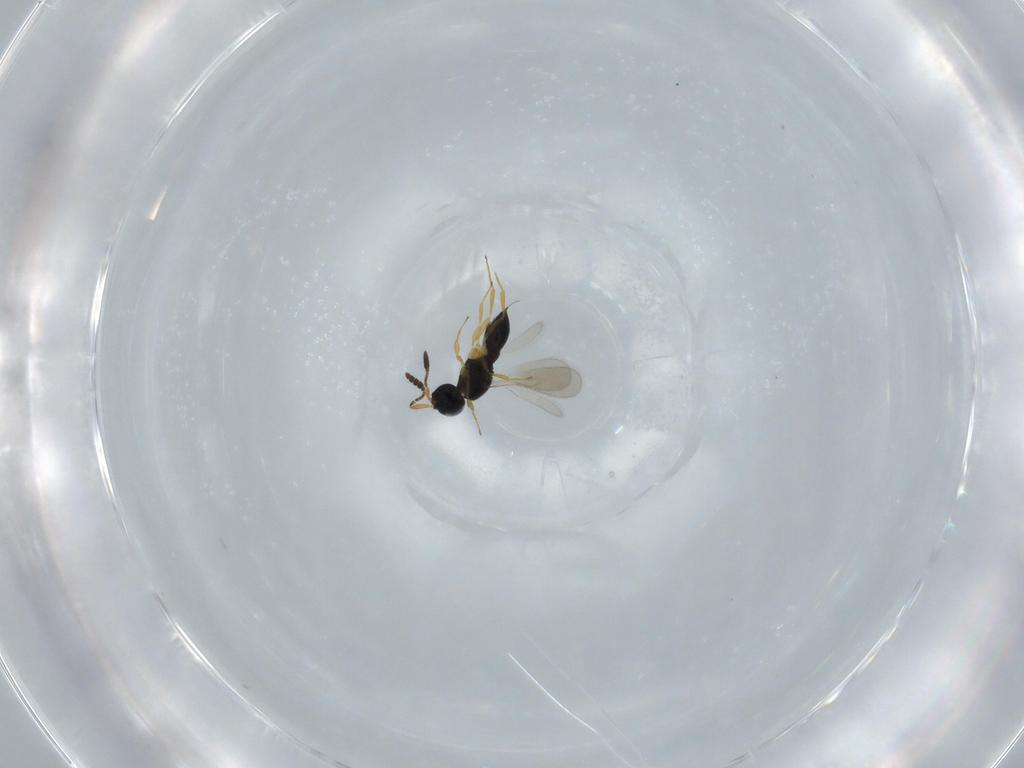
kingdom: Animalia
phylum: Arthropoda
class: Insecta
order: Hymenoptera
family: Scelionidae
